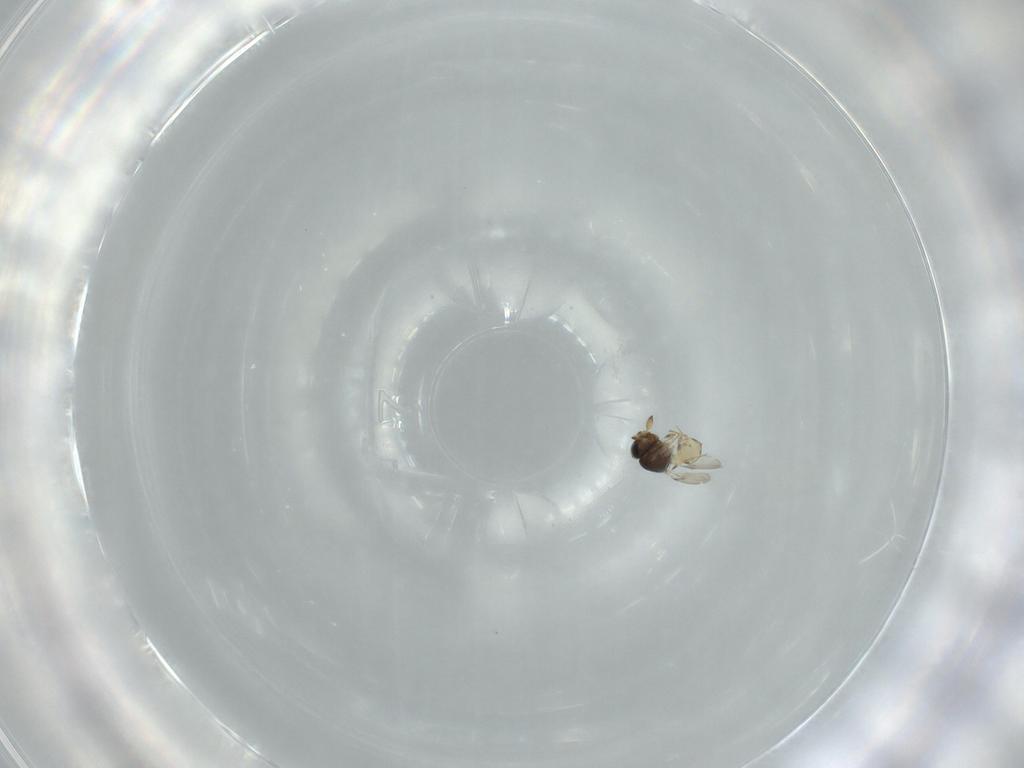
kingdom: Animalia
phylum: Arthropoda
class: Insecta
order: Hymenoptera
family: Scelionidae
